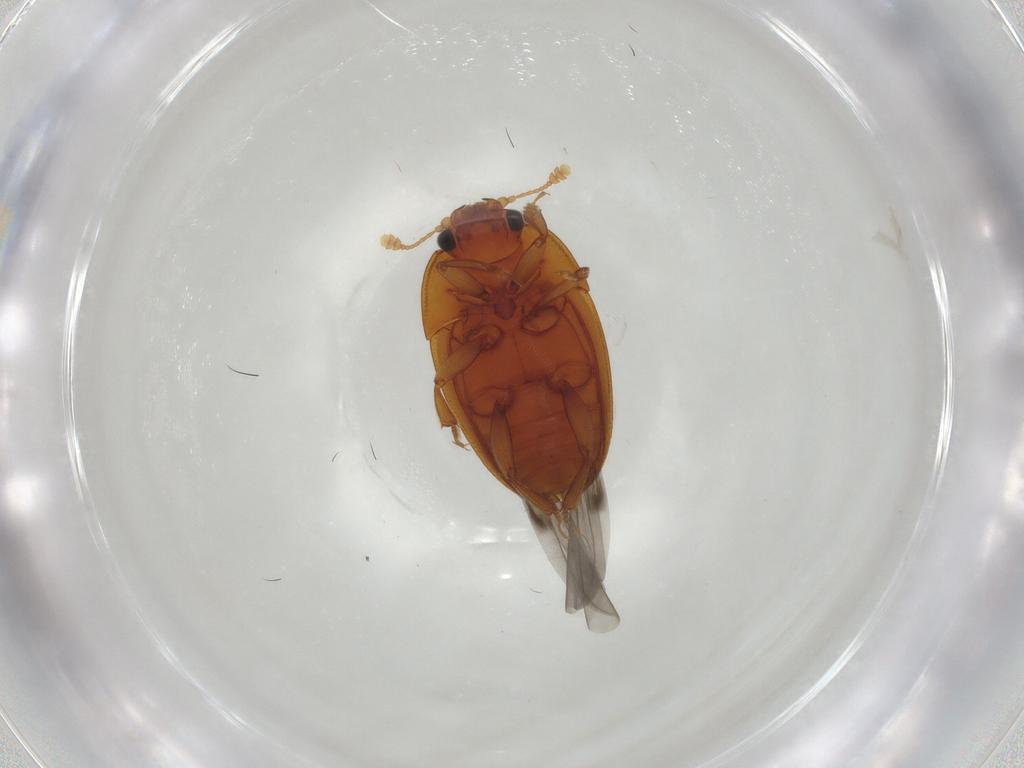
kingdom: Animalia
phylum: Arthropoda
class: Insecta
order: Coleoptera
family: Nitidulidae
